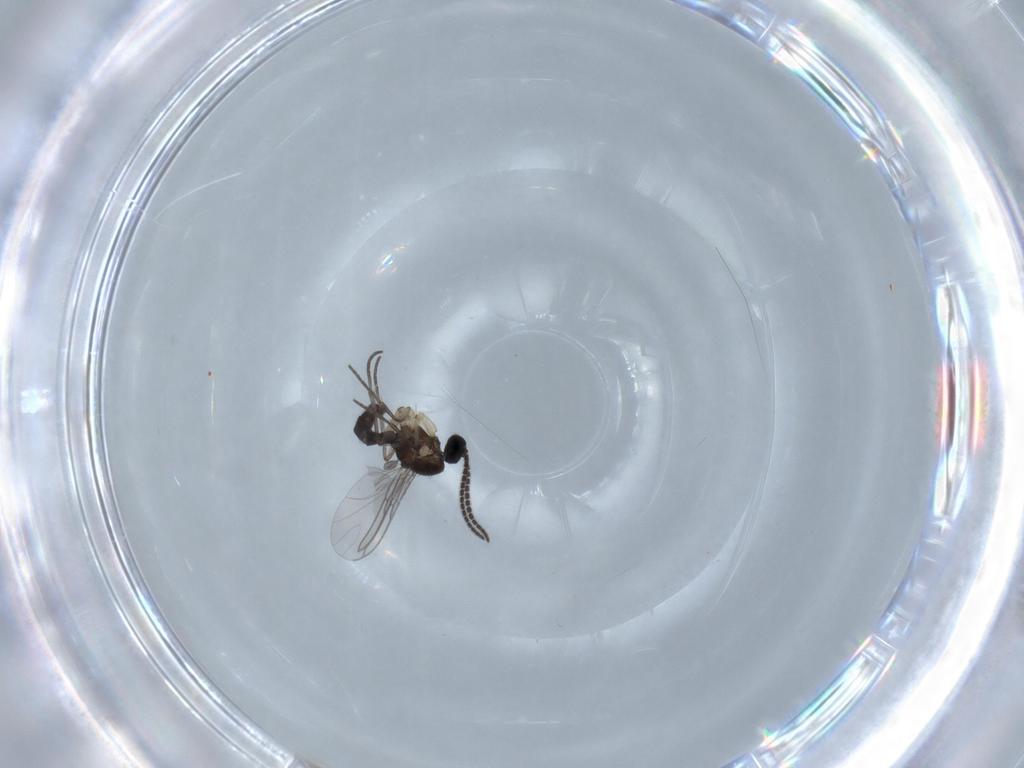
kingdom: Animalia
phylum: Arthropoda
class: Insecta
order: Diptera
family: Sciaridae
